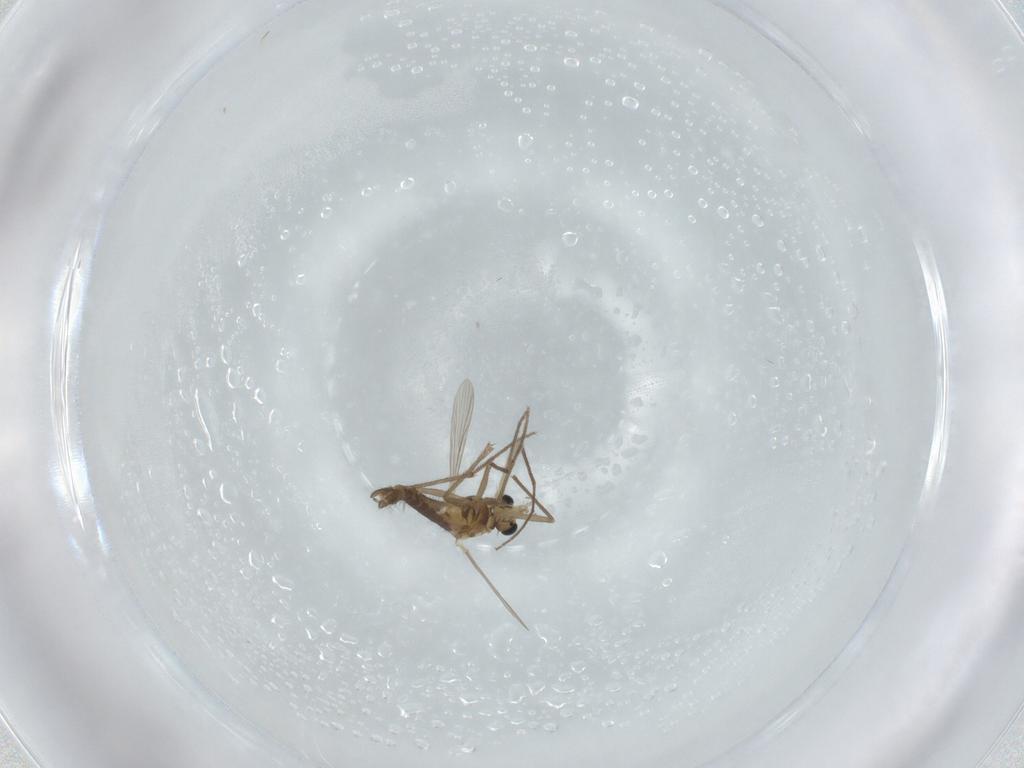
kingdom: Animalia
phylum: Arthropoda
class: Insecta
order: Diptera
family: Chironomidae
